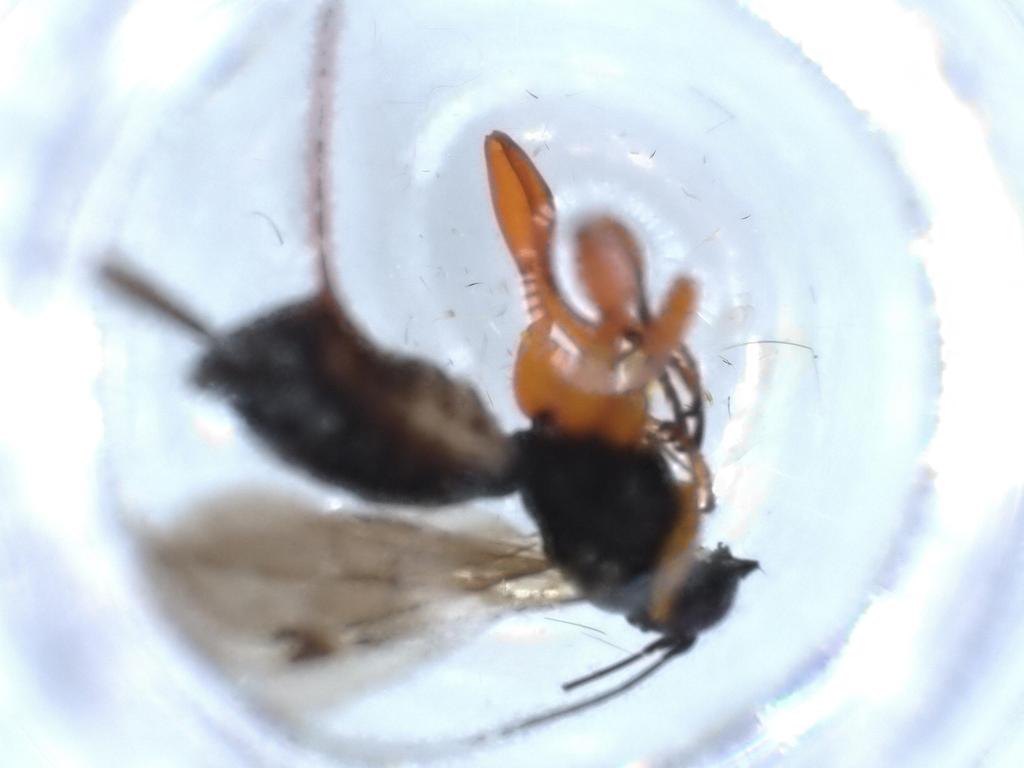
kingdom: Animalia
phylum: Arthropoda
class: Insecta
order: Hymenoptera
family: Ichneumonidae
